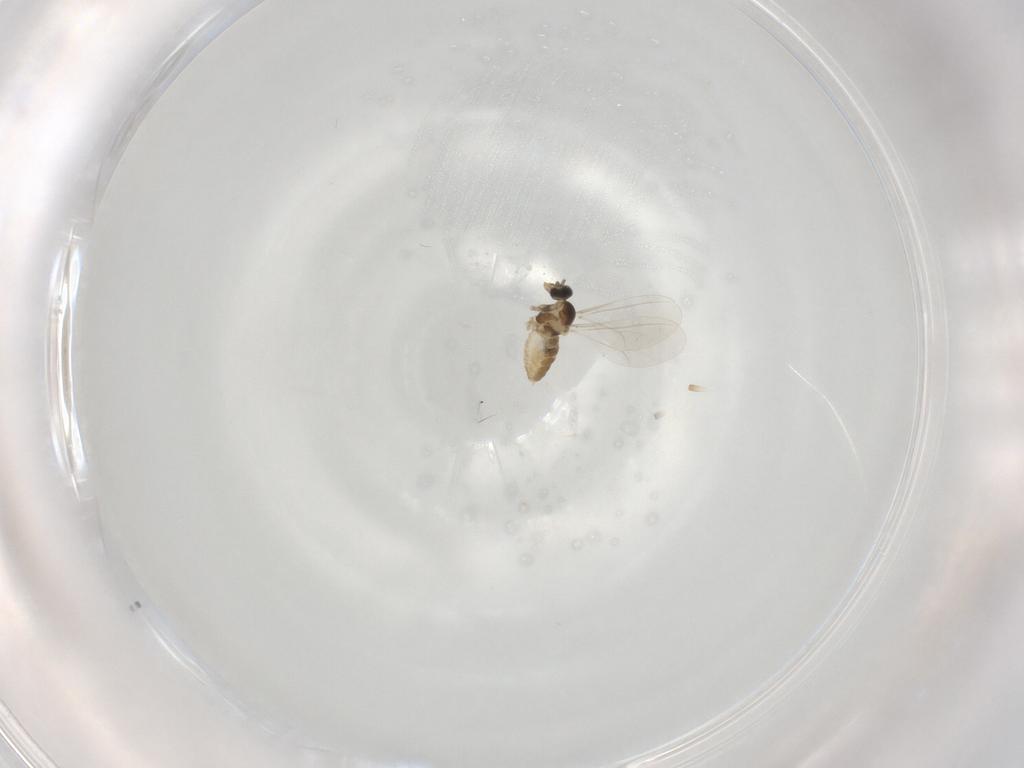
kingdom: Animalia
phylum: Arthropoda
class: Insecta
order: Diptera
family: Cecidomyiidae
